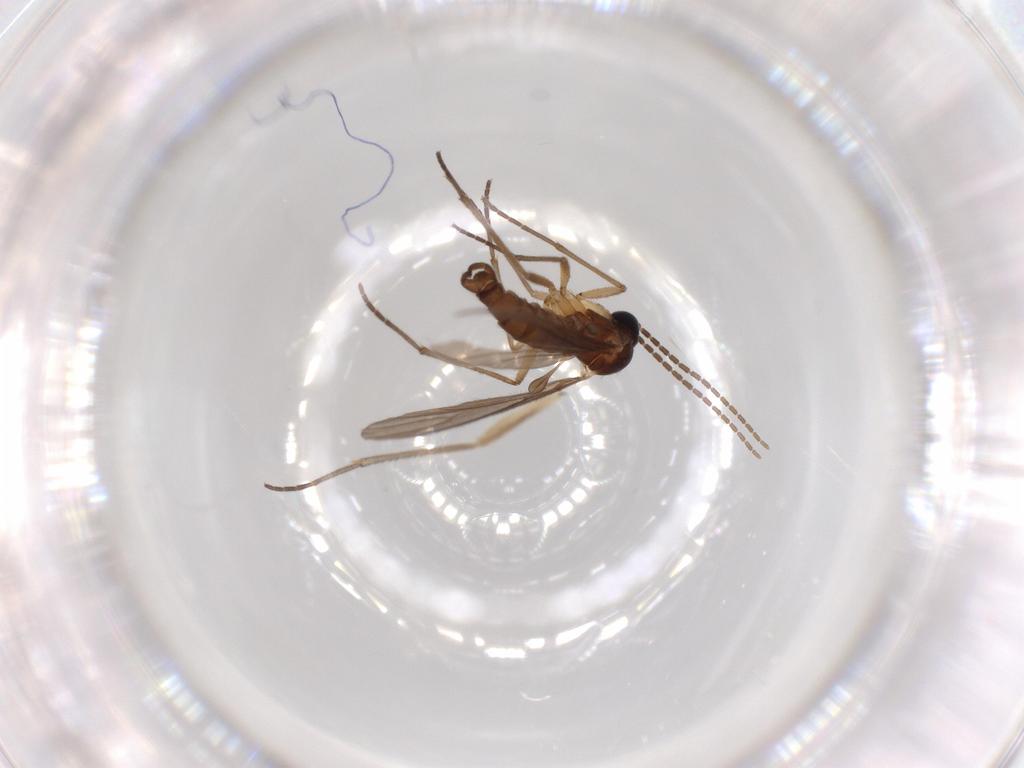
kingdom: Animalia
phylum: Arthropoda
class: Insecta
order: Diptera
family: Sciaridae
